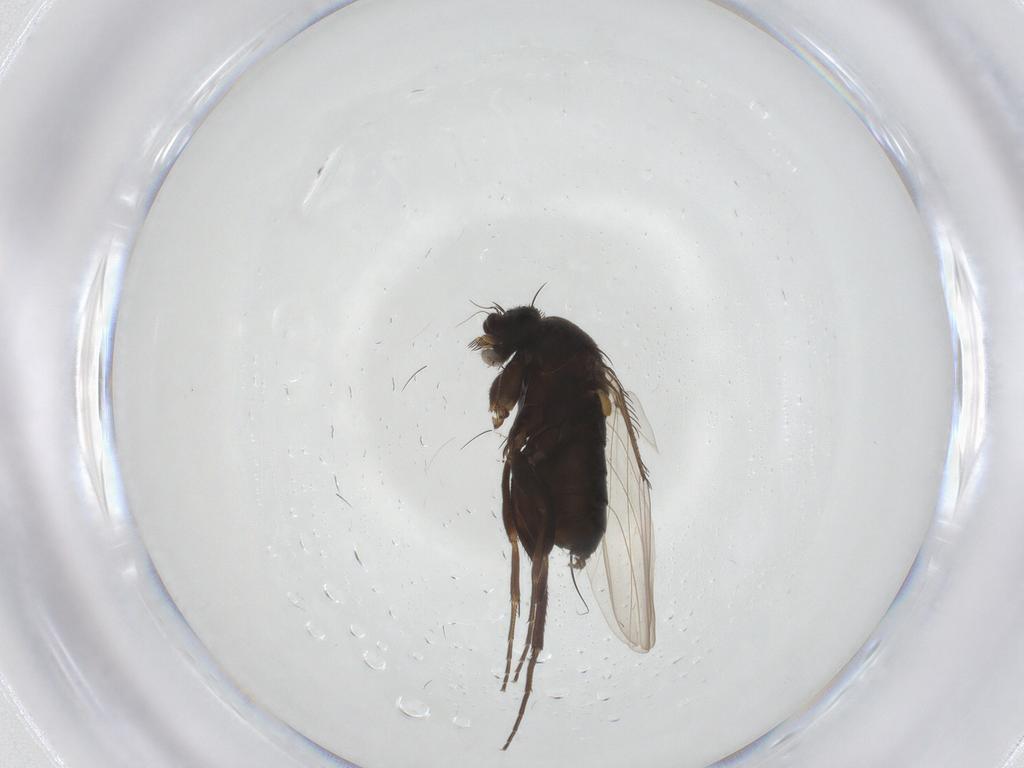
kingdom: Animalia
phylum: Arthropoda
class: Insecta
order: Diptera
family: Phoridae
